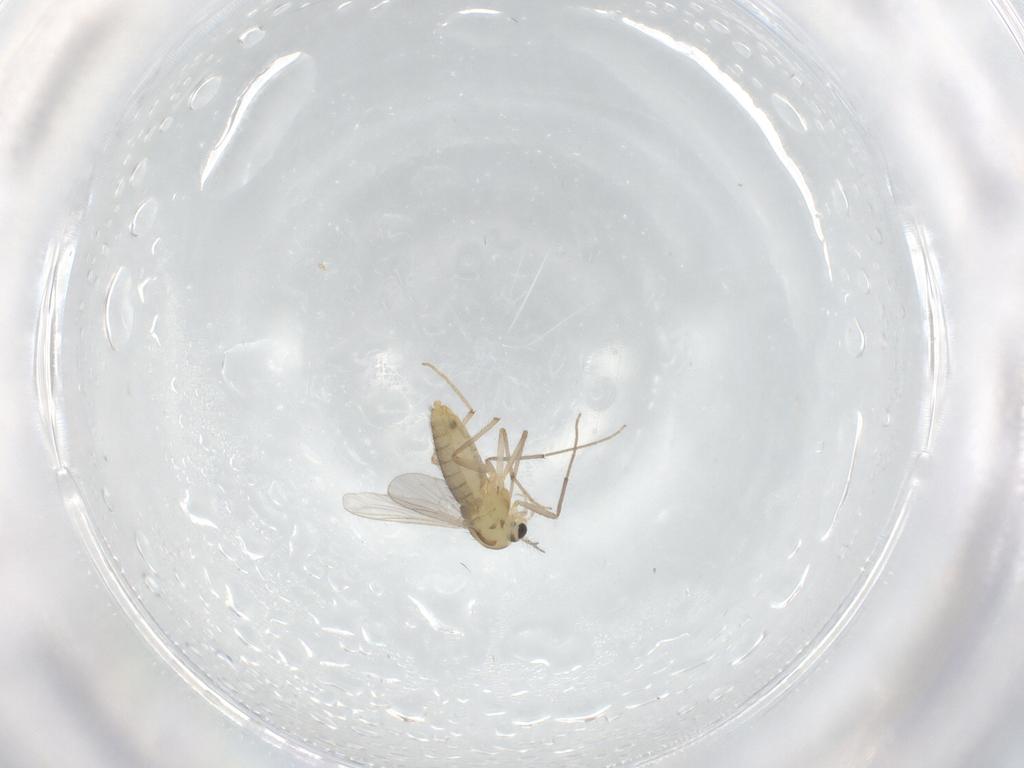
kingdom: Animalia
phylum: Arthropoda
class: Insecta
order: Diptera
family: Chironomidae
